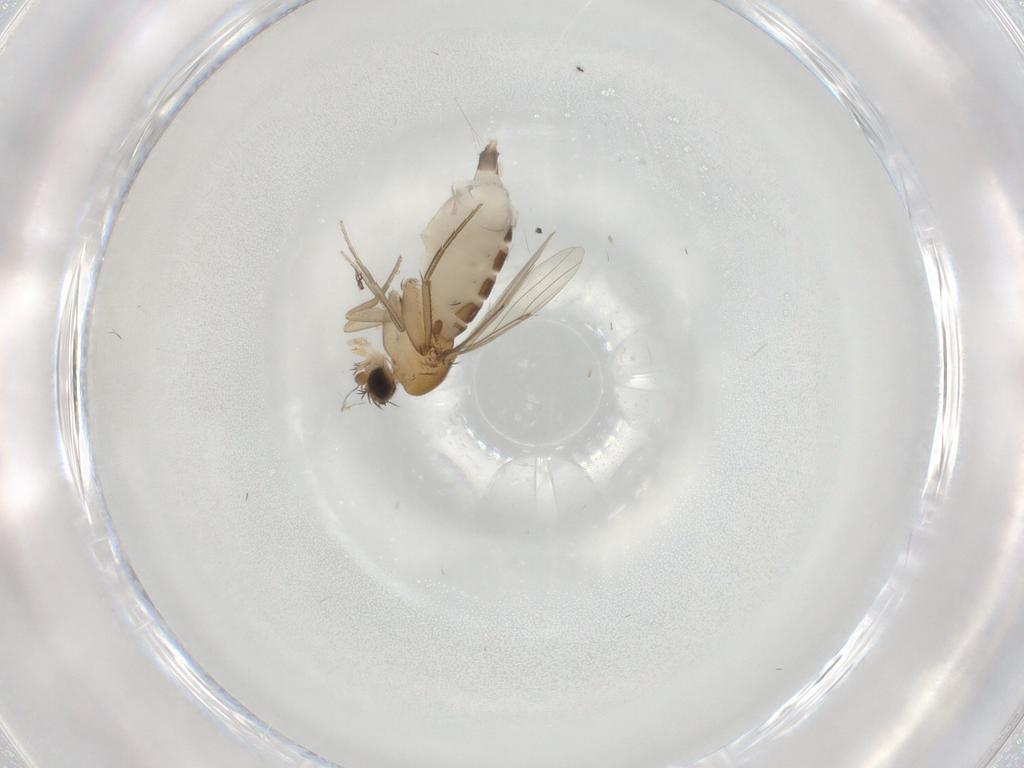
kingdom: Animalia
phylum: Arthropoda
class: Insecta
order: Diptera
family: Phoridae
